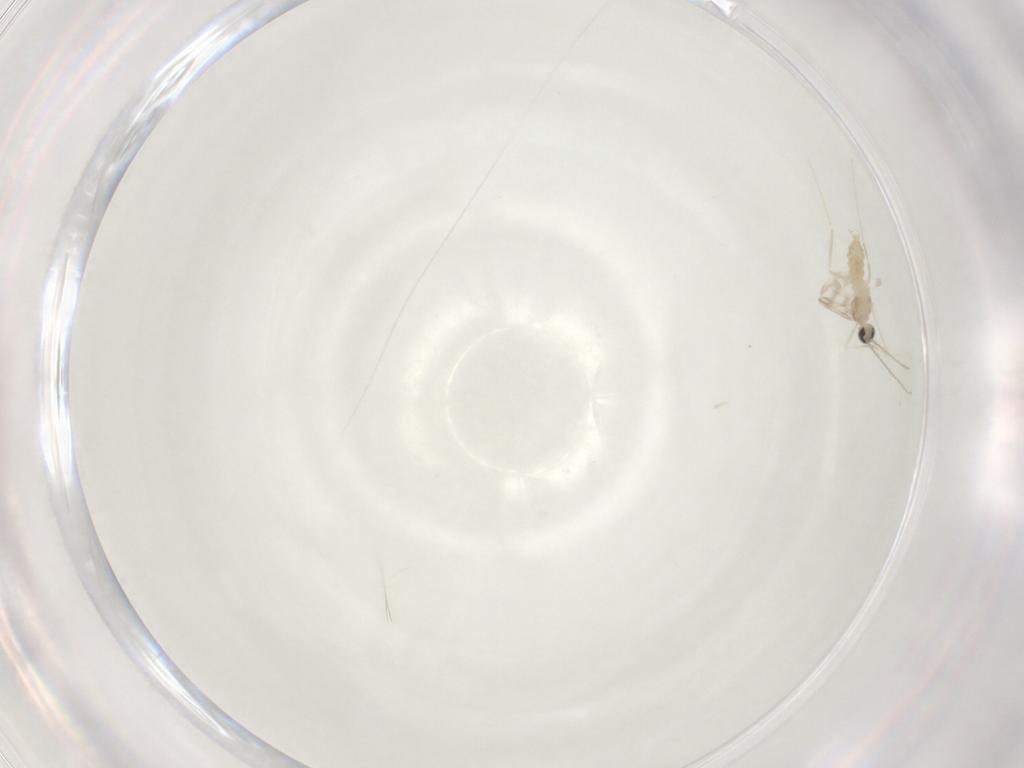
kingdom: Animalia
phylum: Arthropoda
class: Insecta
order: Diptera
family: Cecidomyiidae
